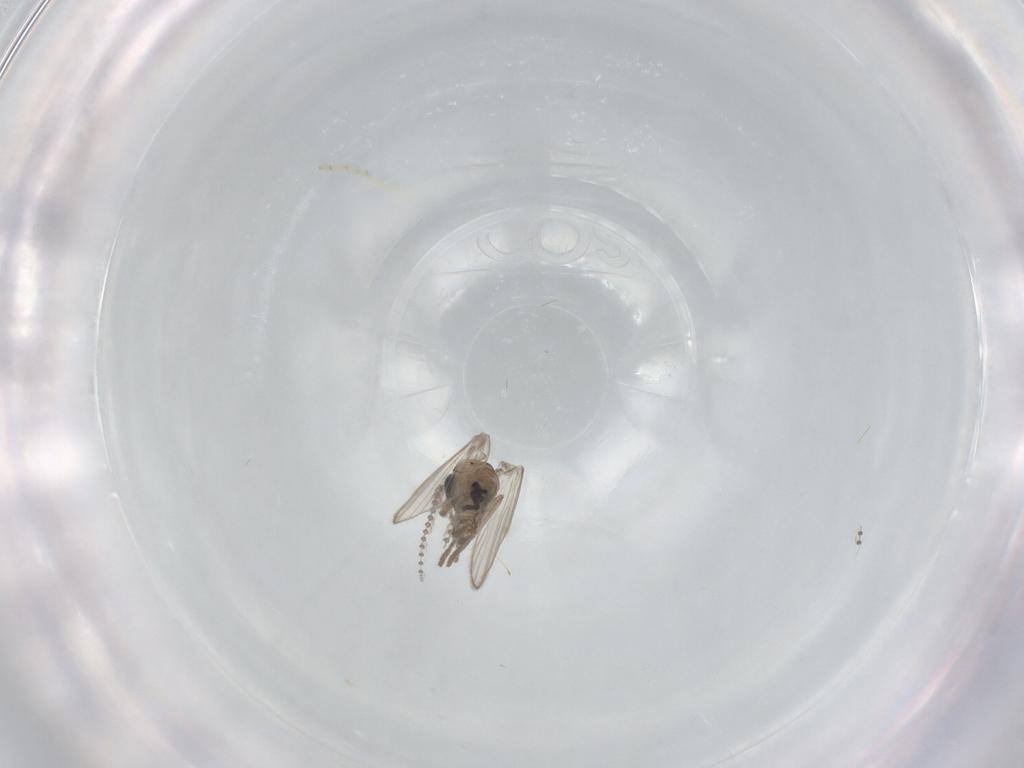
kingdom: Animalia
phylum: Arthropoda
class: Insecta
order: Diptera
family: Psychodidae
